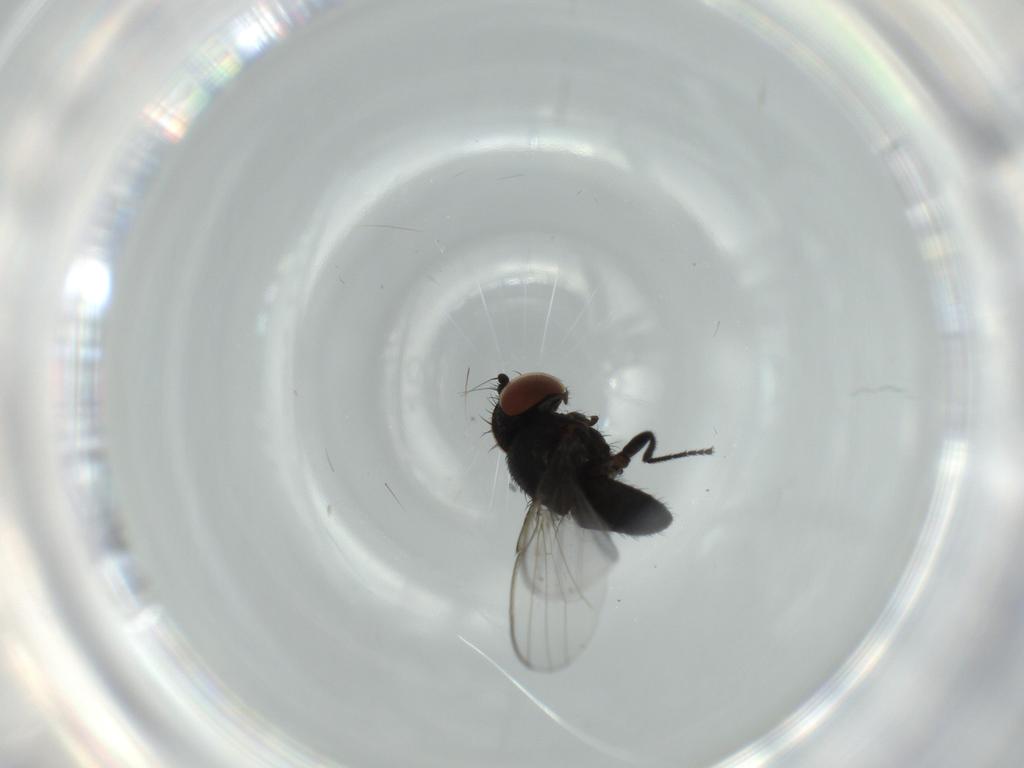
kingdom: Animalia
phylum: Arthropoda
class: Insecta
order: Diptera
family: Milichiidae
